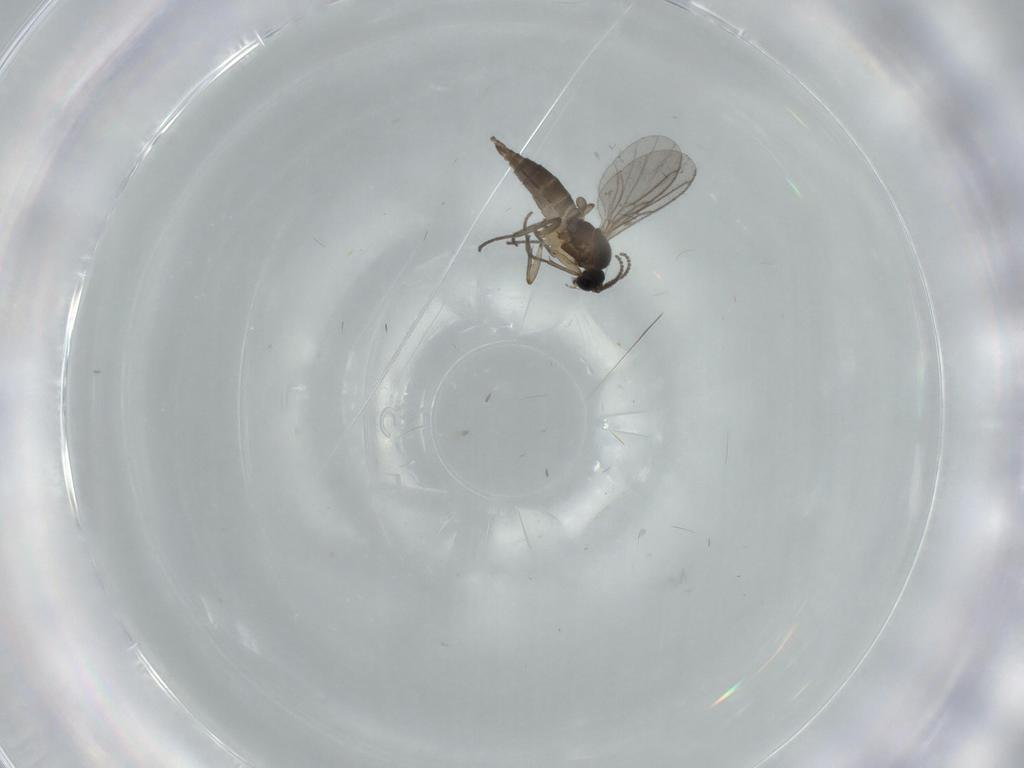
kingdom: Animalia
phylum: Arthropoda
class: Insecta
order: Diptera
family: Sciaridae
